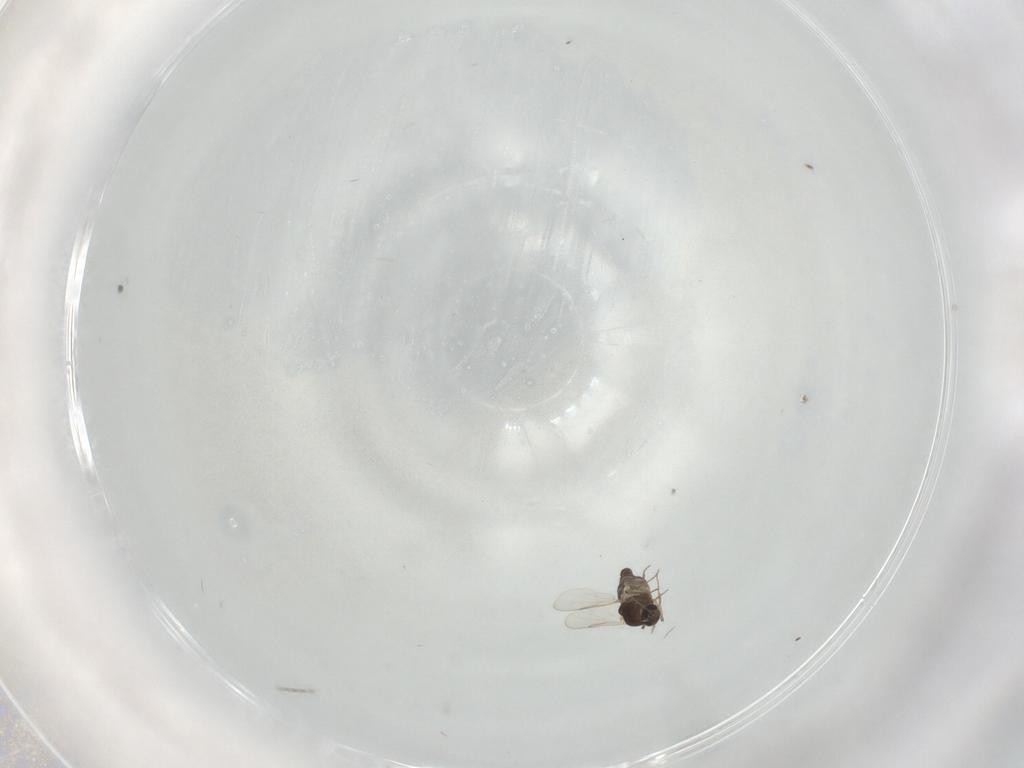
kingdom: Animalia
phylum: Arthropoda
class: Insecta
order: Diptera
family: Ceratopogonidae
